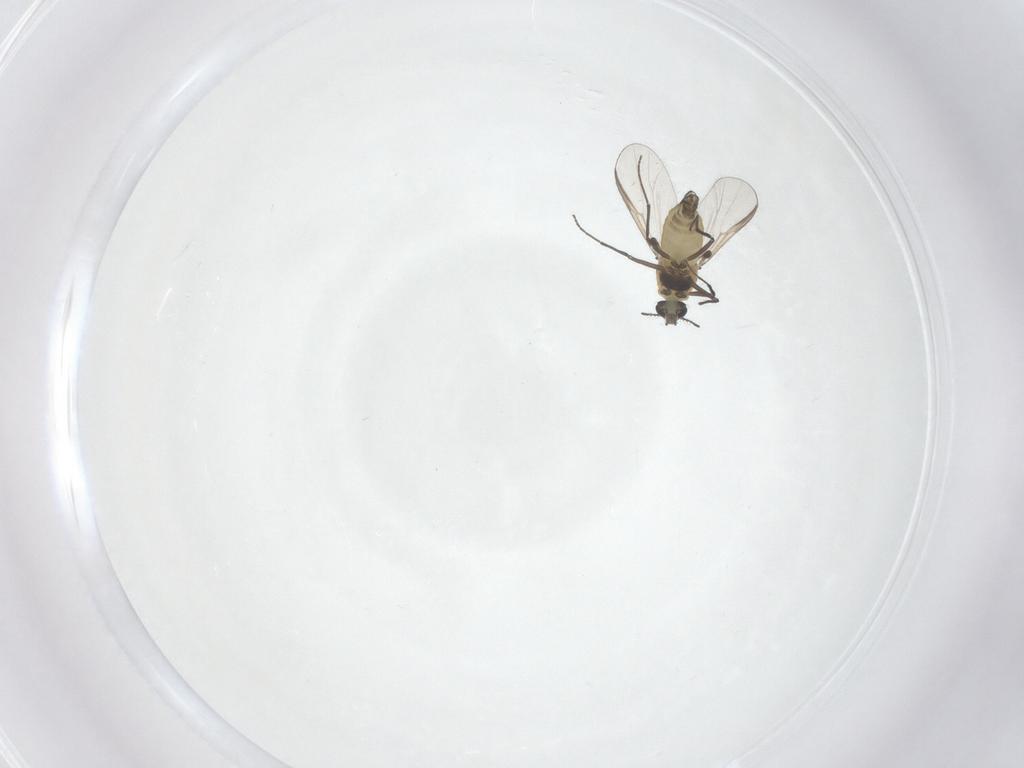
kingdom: Animalia
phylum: Arthropoda
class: Insecta
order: Diptera
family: Chironomidae
